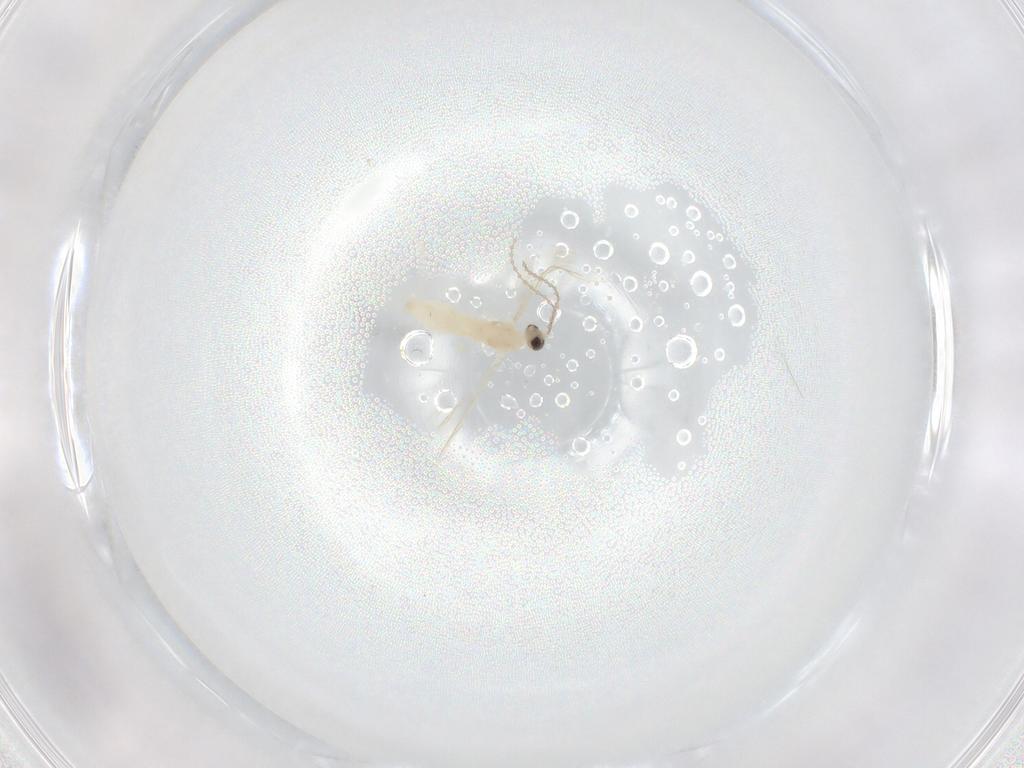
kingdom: Animalia
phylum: Arthropoda
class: Insecta
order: Diptera
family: Cecidomyiidae
